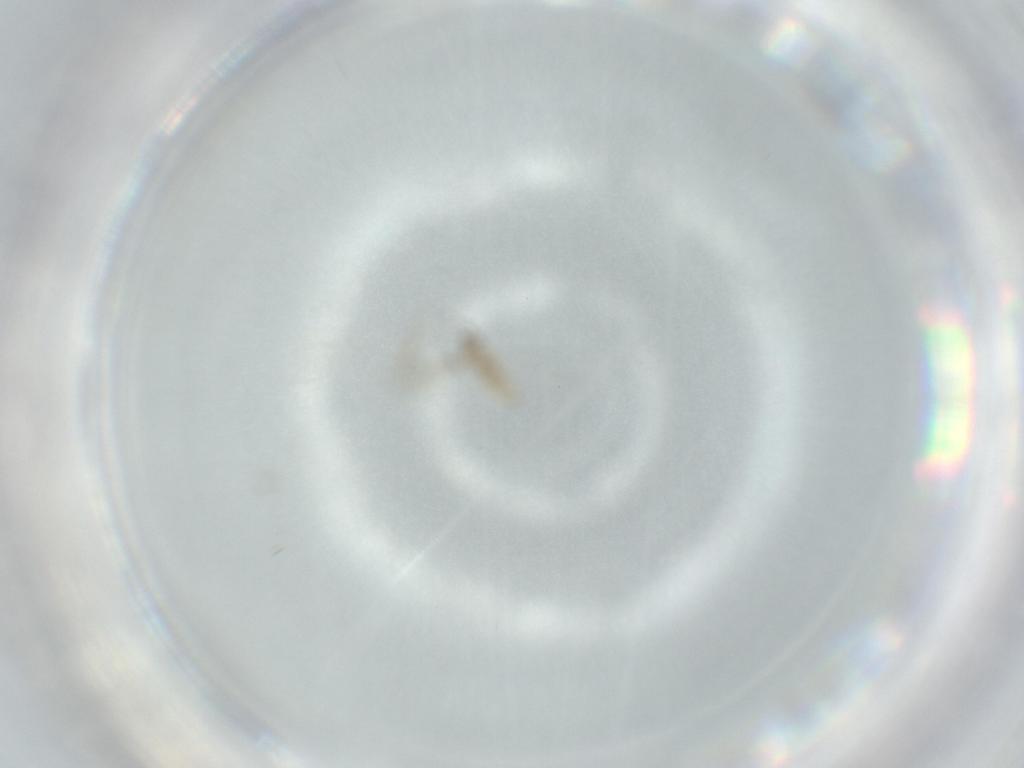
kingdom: Animalia
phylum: Arthropoda
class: Insecta
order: Diptera
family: Cecidomyiidae
